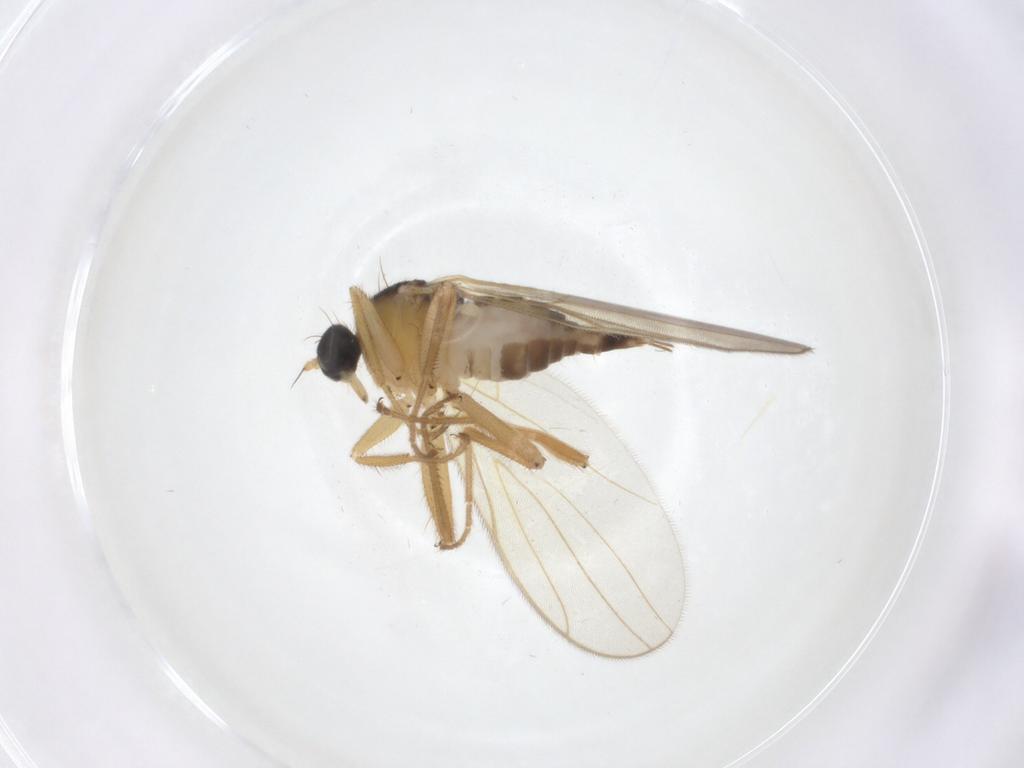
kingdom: Animalia
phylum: Arthropoda
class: Insecta
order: Diptera
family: Hybotidae
